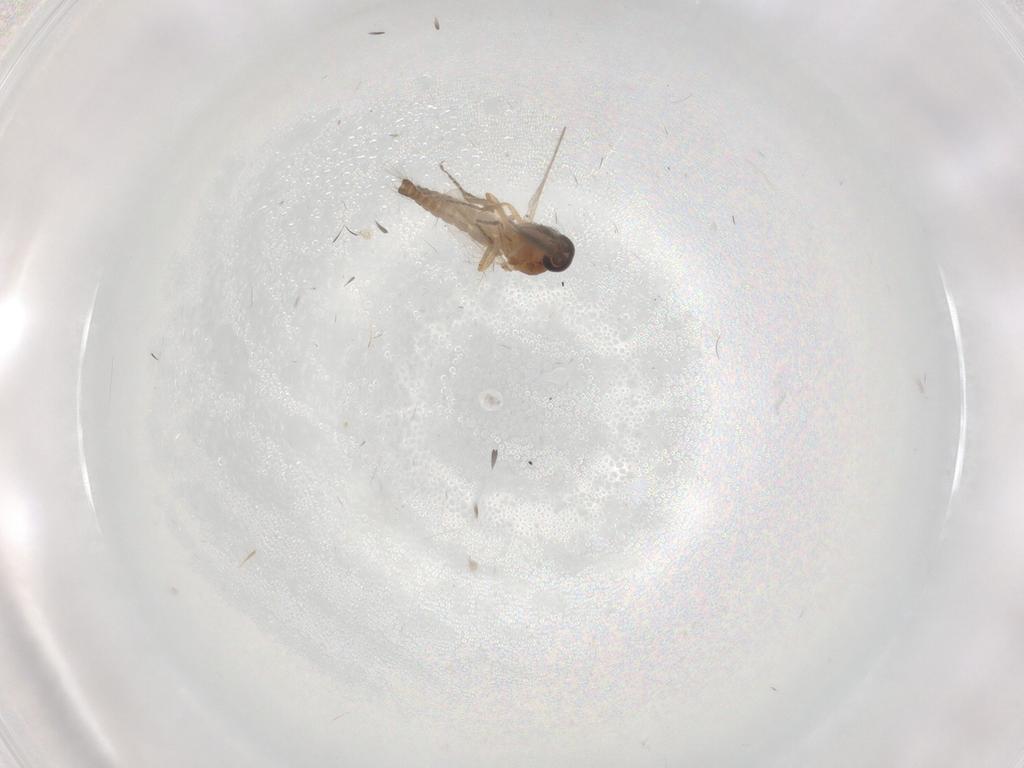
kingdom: Animalia
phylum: Arthropoda
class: Insecta
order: Diptera
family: Ceratopogonidae
